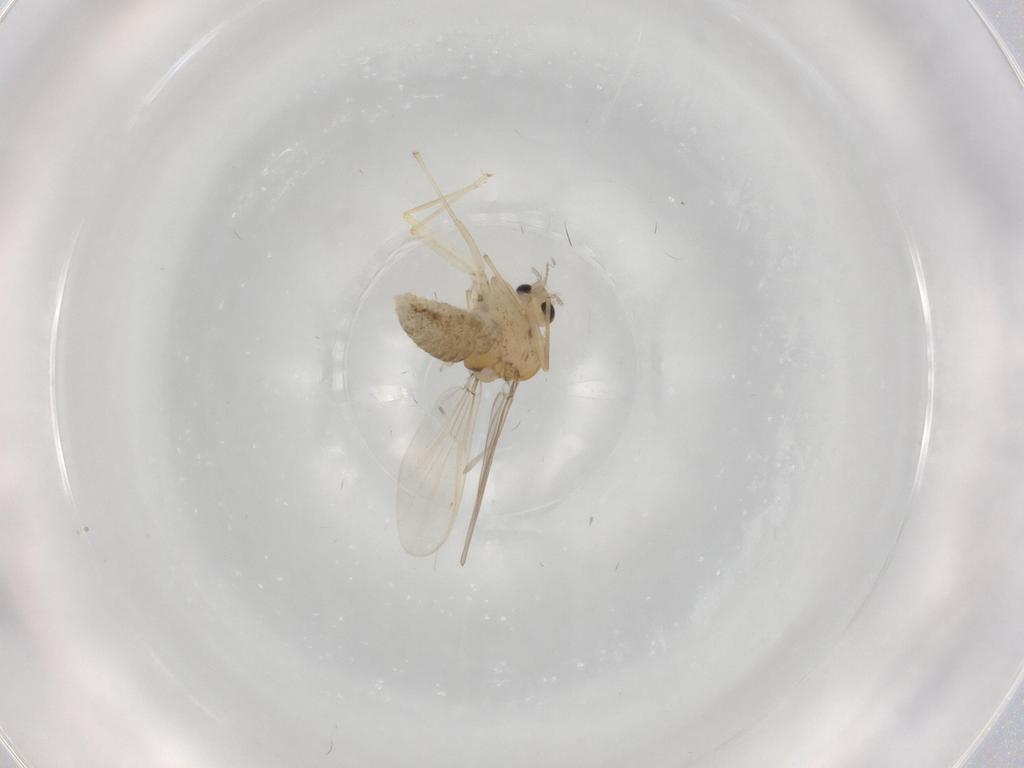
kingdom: Animalia
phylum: Arthropoda
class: Insecta
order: Diptera
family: Chironomidae
